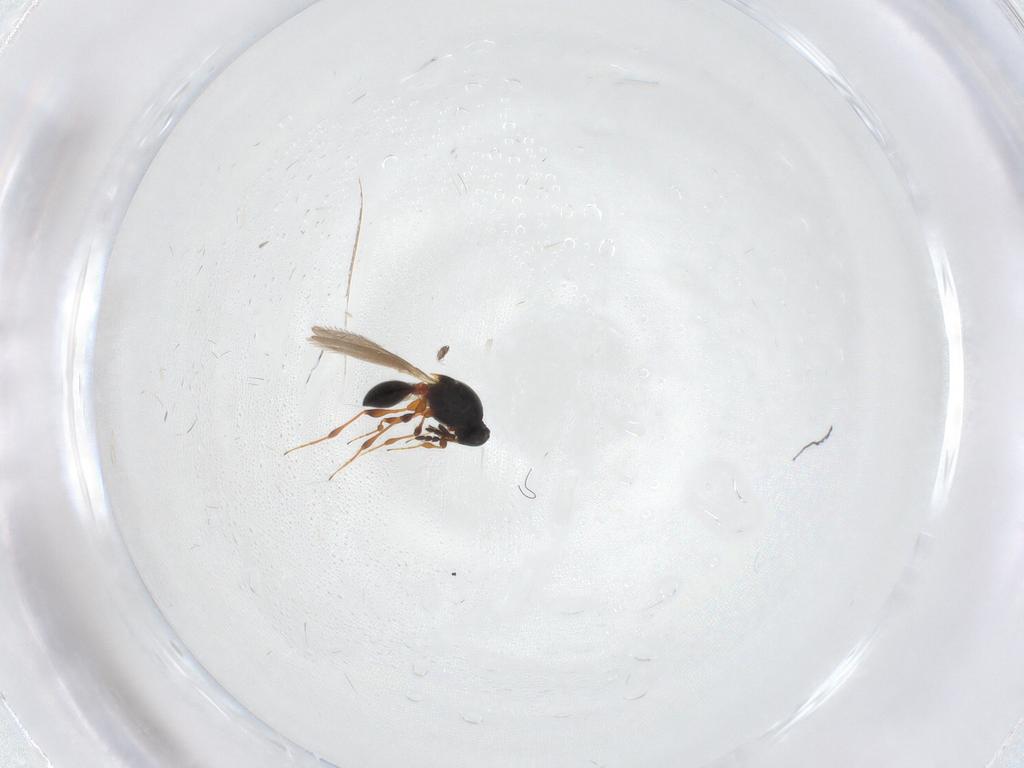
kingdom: Animalia
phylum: Arthropoda
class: Insecta
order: Hymenoptera
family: Platygastridae
